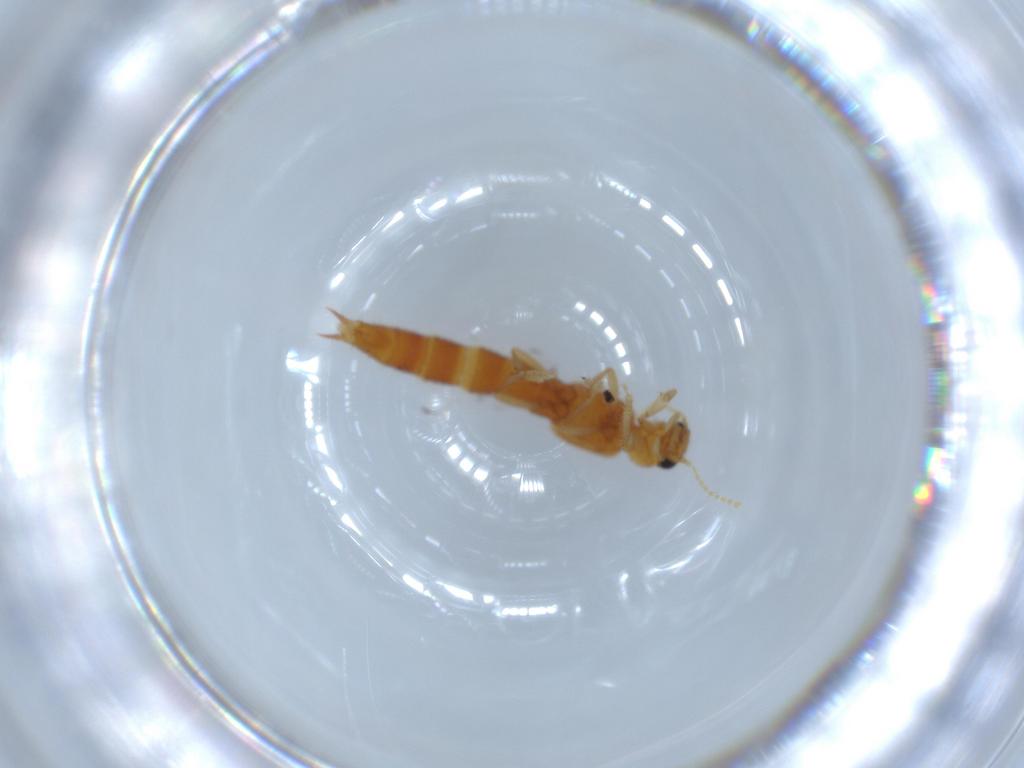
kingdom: Animalia
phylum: Arthropoda
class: Insecta
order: Coleoptera
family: Staphylinidae
